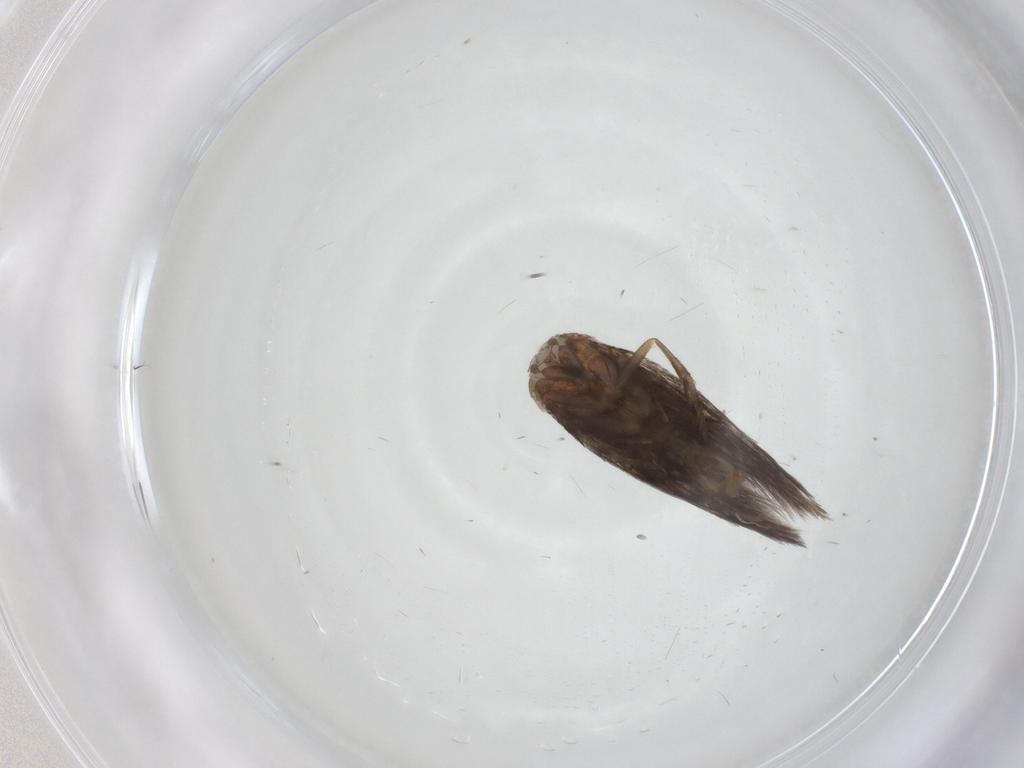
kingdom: Animalia
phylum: Arthropoda
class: Insecta
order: Lepidoptera
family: Elachistidae
